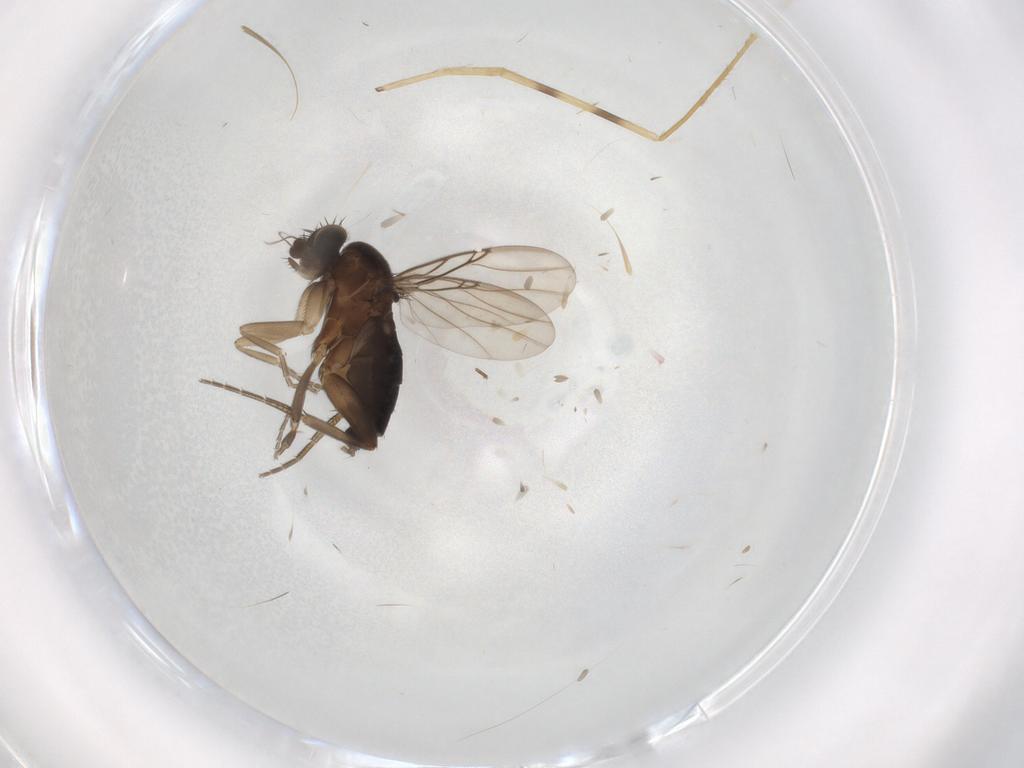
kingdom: Animalia
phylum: Arthropoda
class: Insecta
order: Diptera
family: Phoridae
